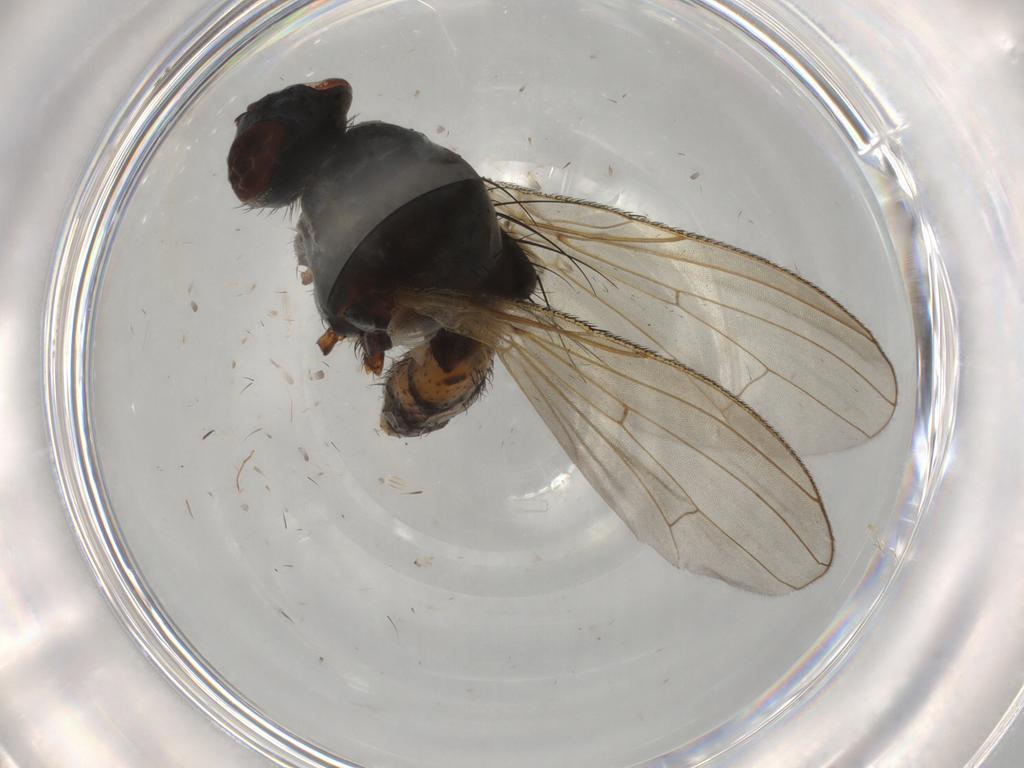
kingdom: Animalia
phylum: Arthropoda
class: Insecta
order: Diptera
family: Anthomyiidae
